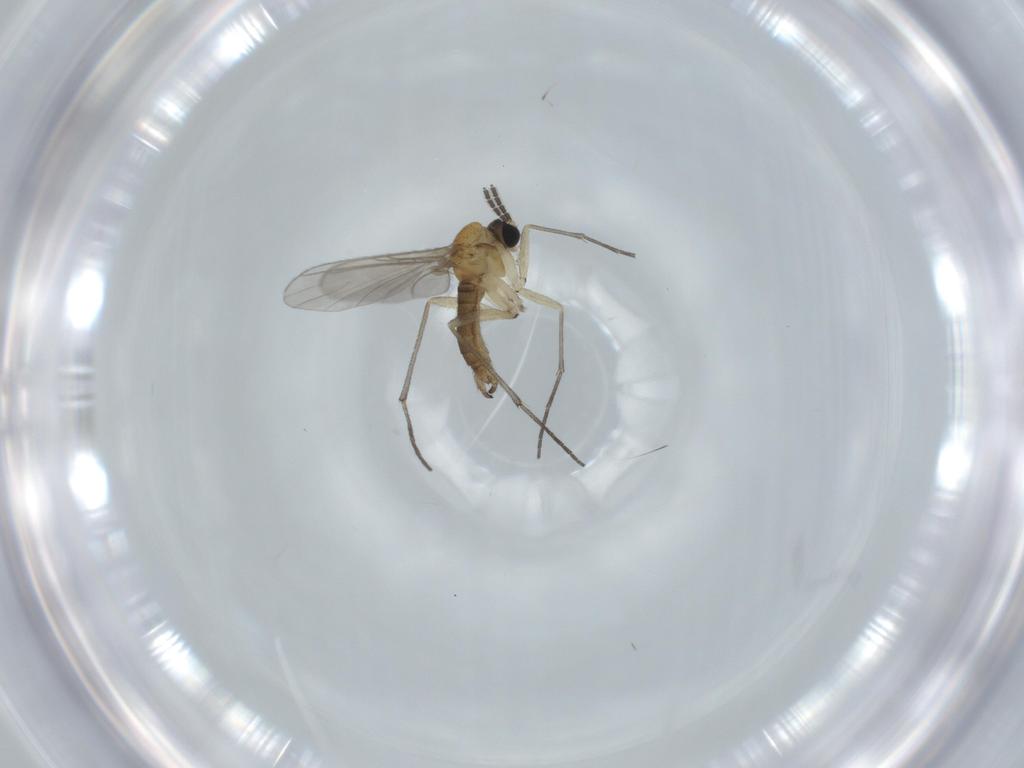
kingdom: Animalia
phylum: Arthropoda
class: Insecta
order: Diptera
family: Sciaridae
